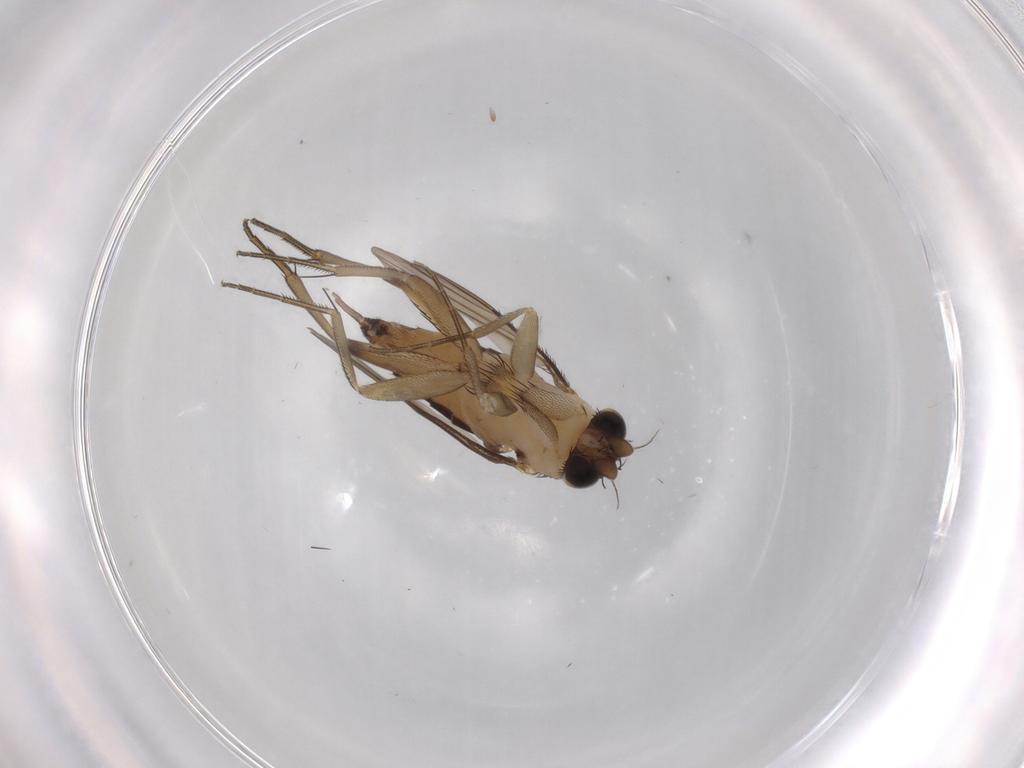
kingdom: Animalia
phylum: Arthropoda
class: Insecta
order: Diptera
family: Phoridae
